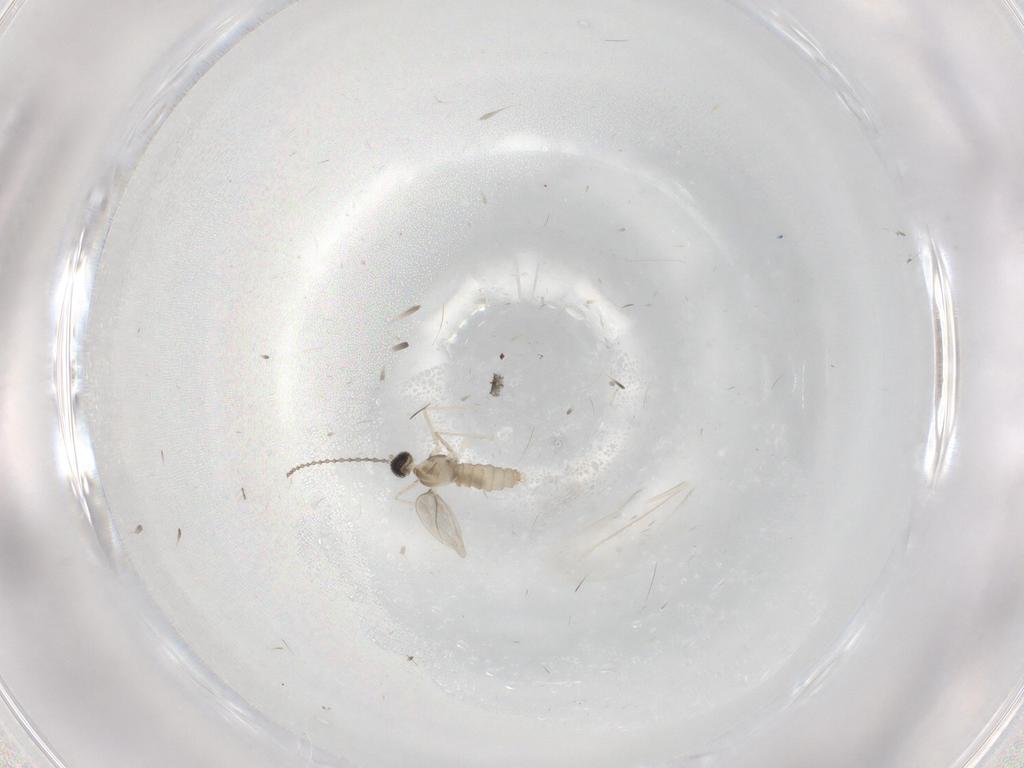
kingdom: Animalia
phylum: Arthropoda
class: Insecta
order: Diptera
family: Cecidomyiidae
